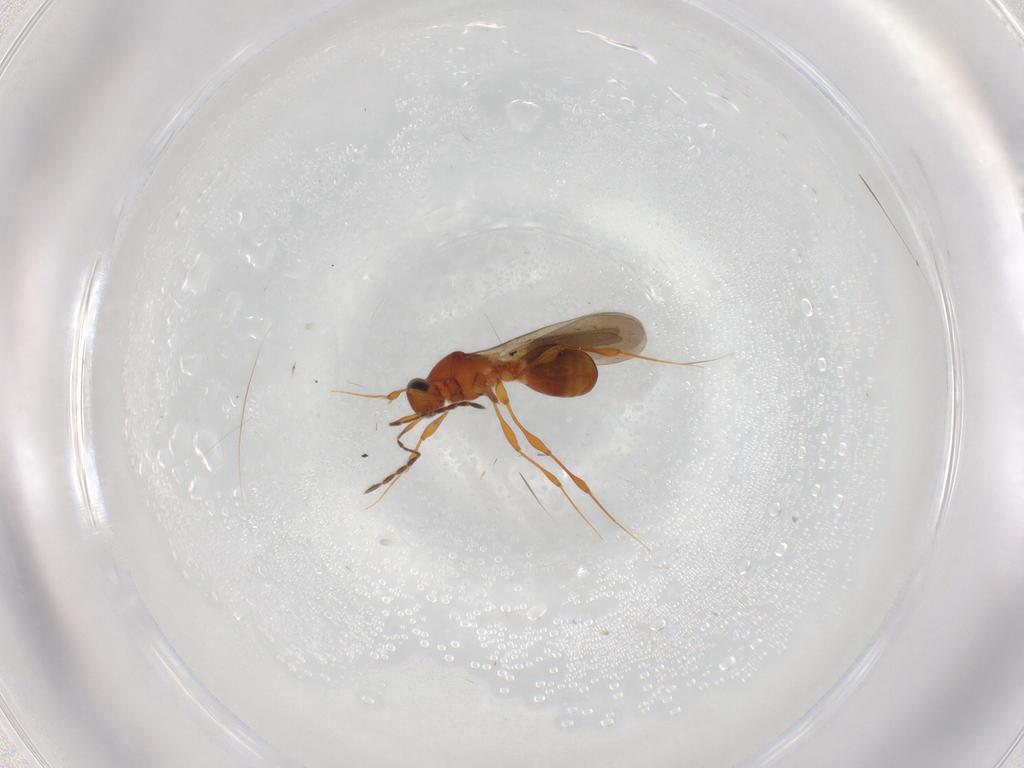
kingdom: Animalia
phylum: Arthropoda
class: Insecta
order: Hymenoptera
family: Platygastridae
